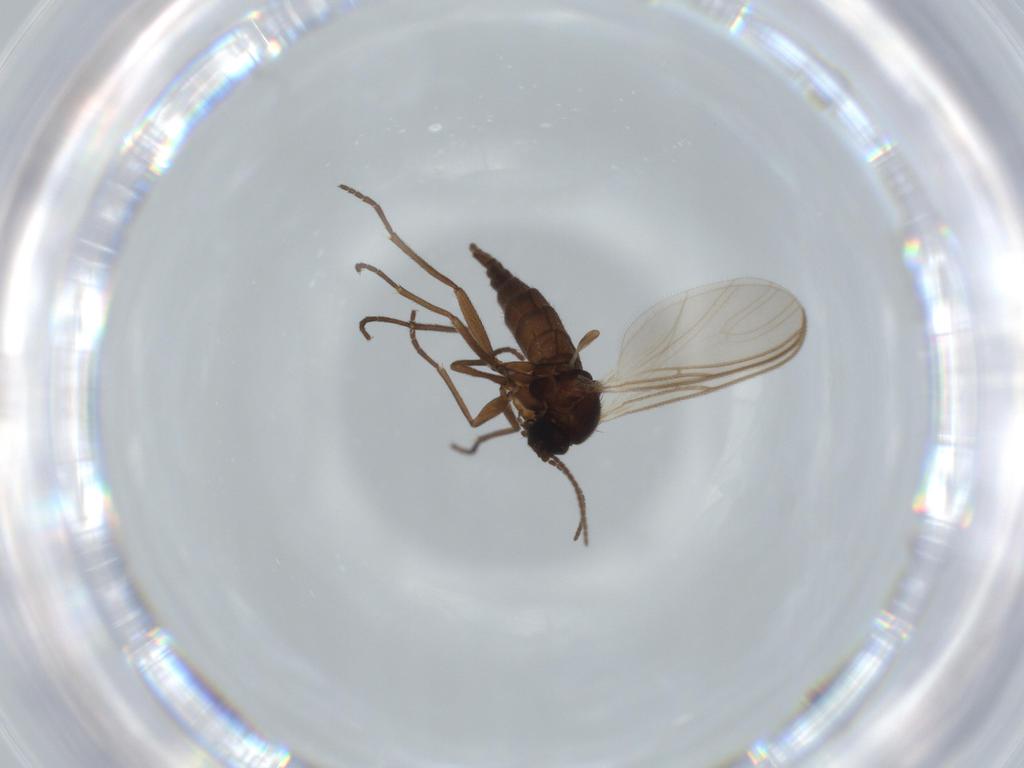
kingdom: Animalia
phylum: Arthropoda
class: Insecta
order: Diptera
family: Sciaridae
